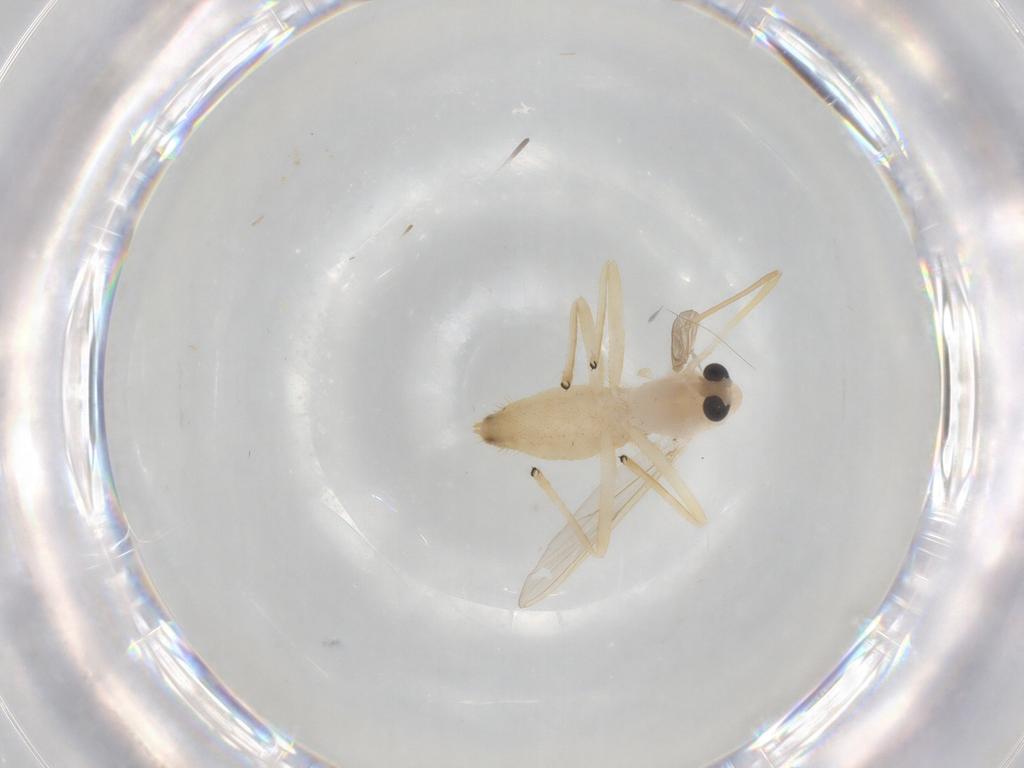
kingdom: Animalia
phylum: Arthropoda
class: Insecta
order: Diptera
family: Chironomidae
